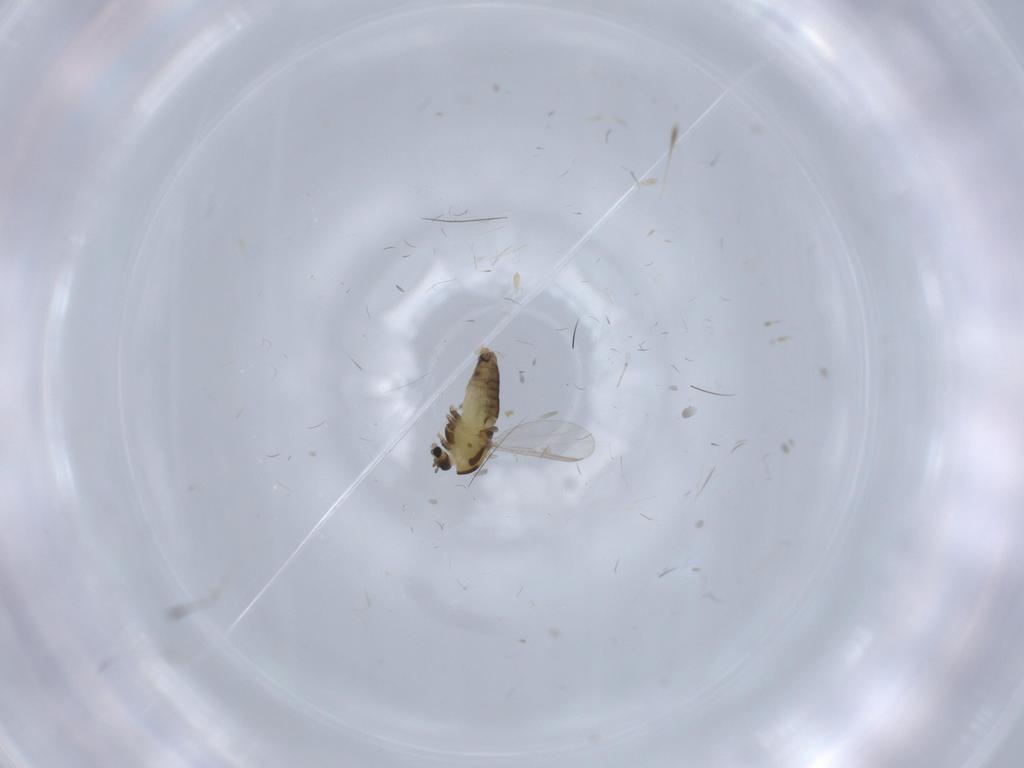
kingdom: Animalia
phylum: Arthropoda
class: Insecta
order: Diptera
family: Chironomidae
